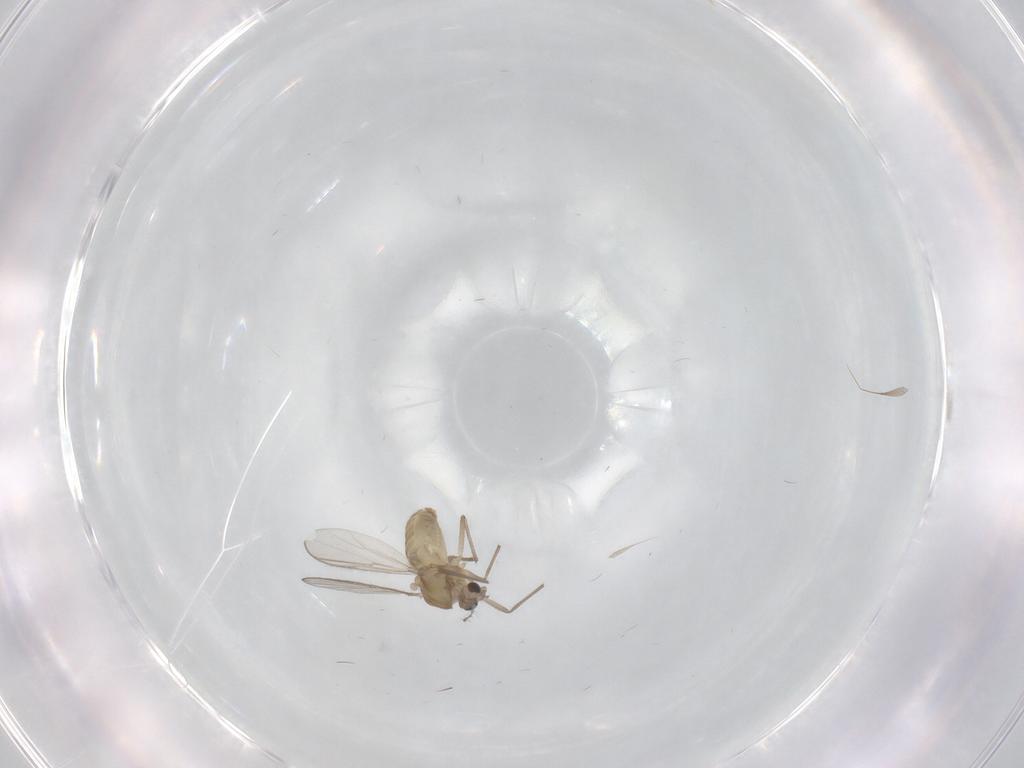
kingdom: Animalia
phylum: Arthropoda
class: Insecta
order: Diptera
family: Chironomidae
